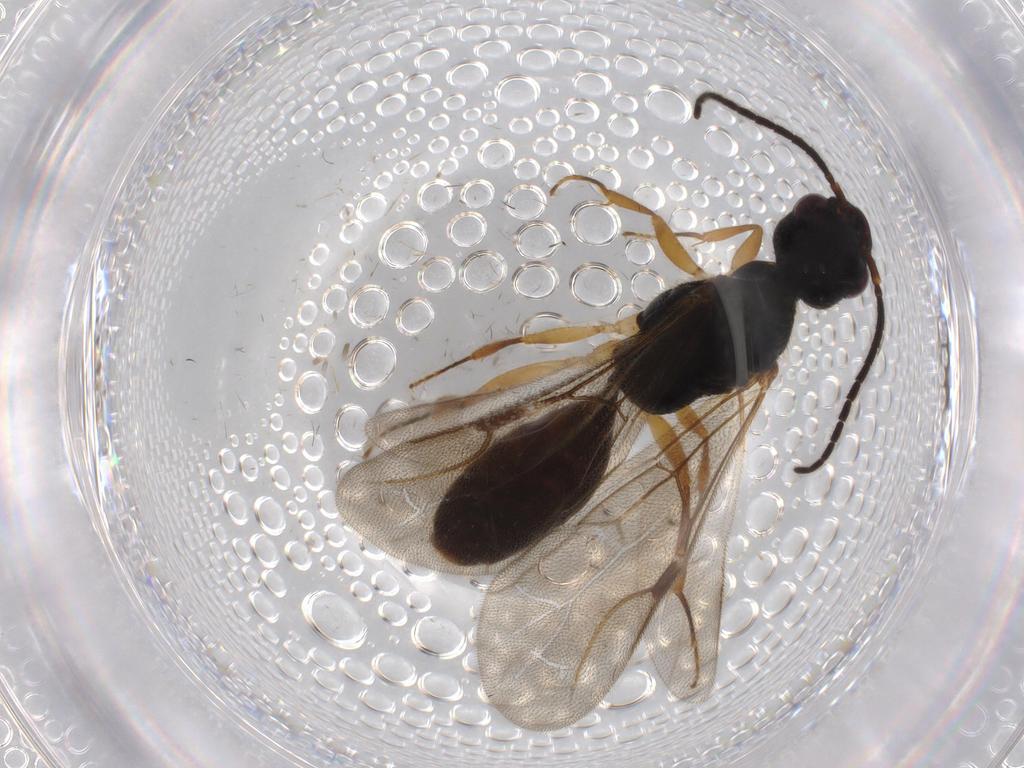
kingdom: Animalia
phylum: Arthropoda
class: Insecta
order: Hymenoptera
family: Bethylidae
